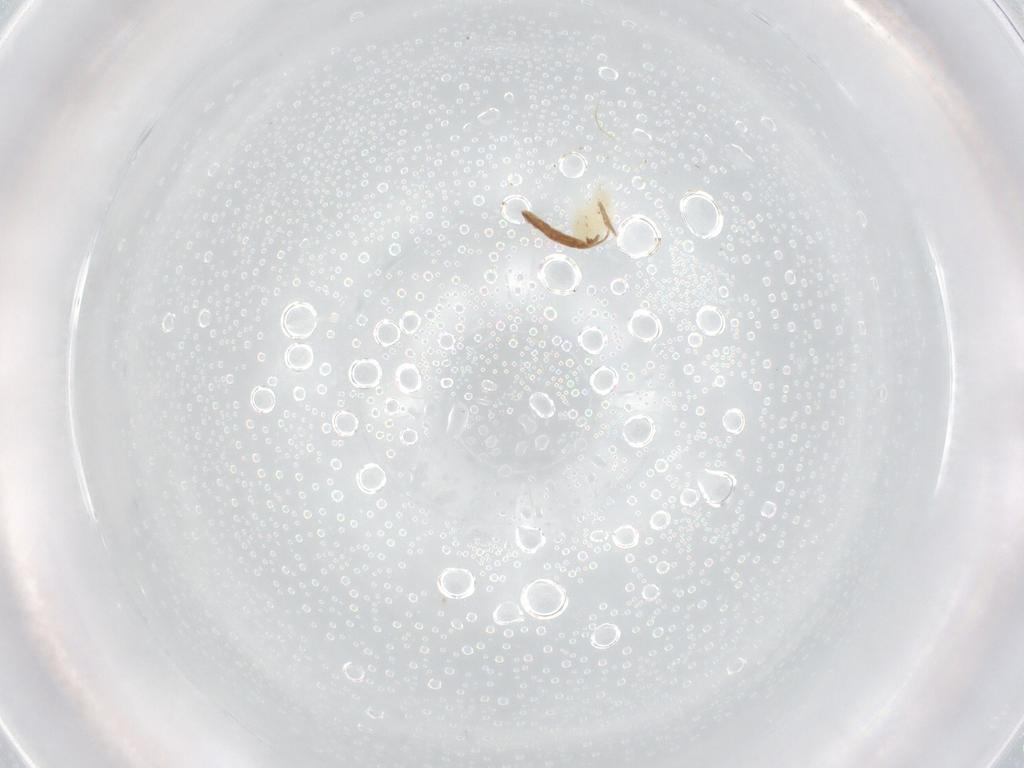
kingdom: Animalia
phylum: Arthropoda
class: Arachnida
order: Trombidiformes
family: Eupodidae
